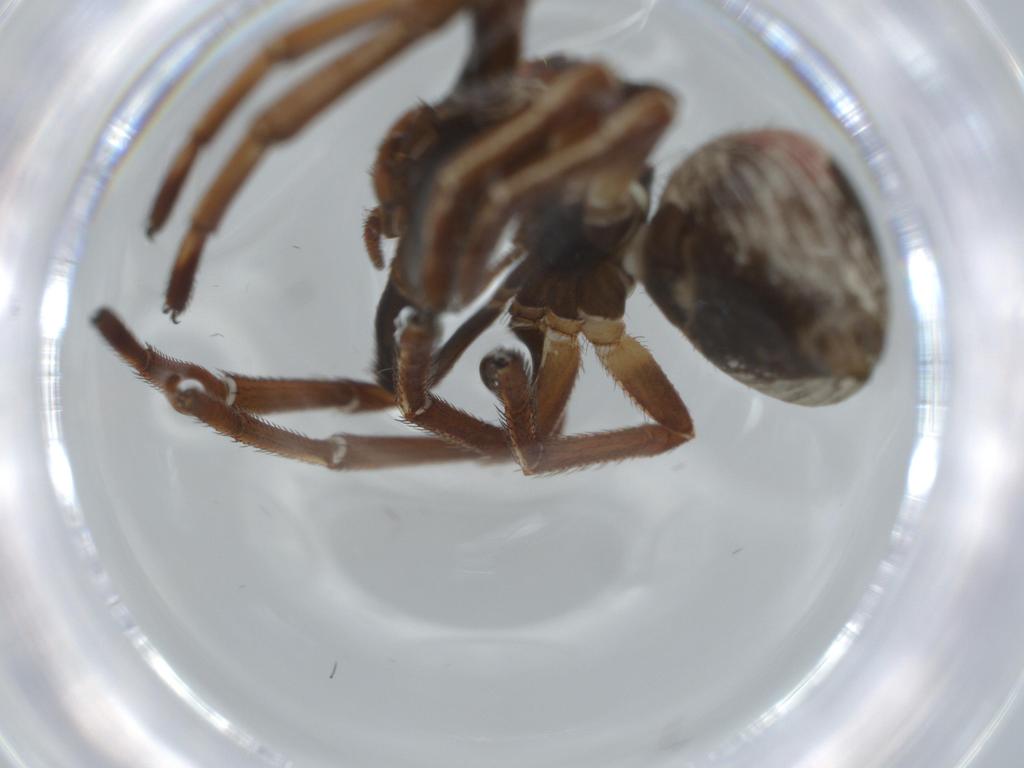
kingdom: Animalia
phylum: Arthropoda
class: Arachnida
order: Araneae
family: Thomisidae
